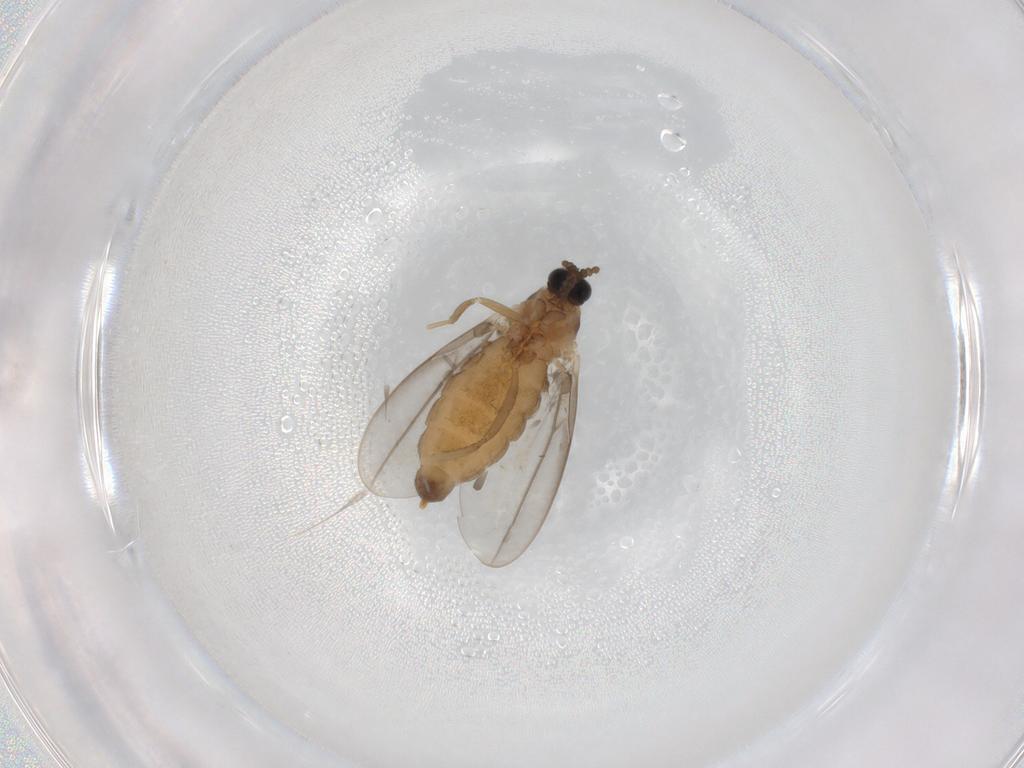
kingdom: Animalia
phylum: Arthropoda
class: Insecta
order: Diptera
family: Cecidomyiidae
